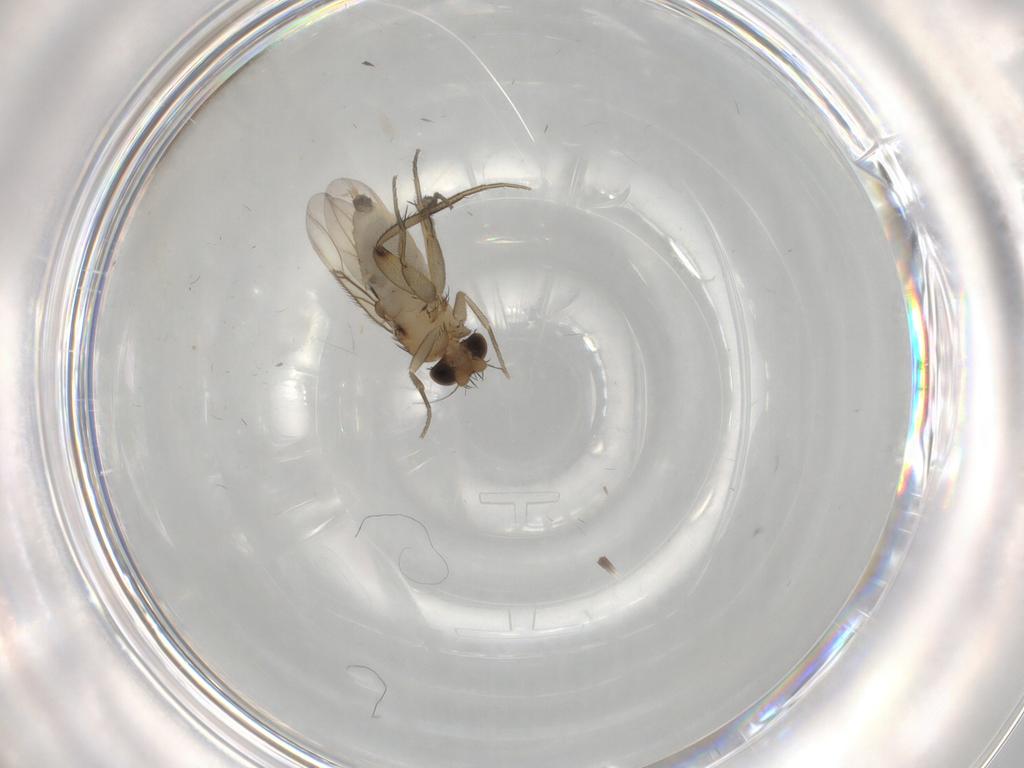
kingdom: Animalia
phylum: Arthropoda
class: Insecta
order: Diptera
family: Phoridae
